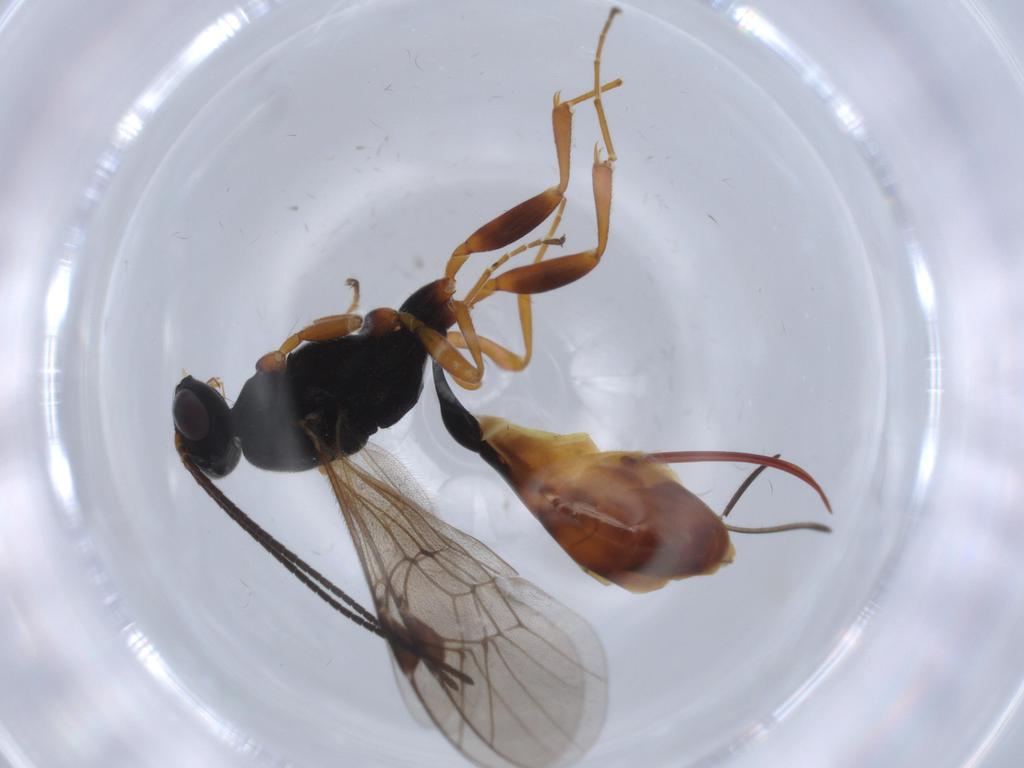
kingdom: Animalia
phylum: Arthropoda
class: Insecta
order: Hymenoptera
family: Ichneumonidae
